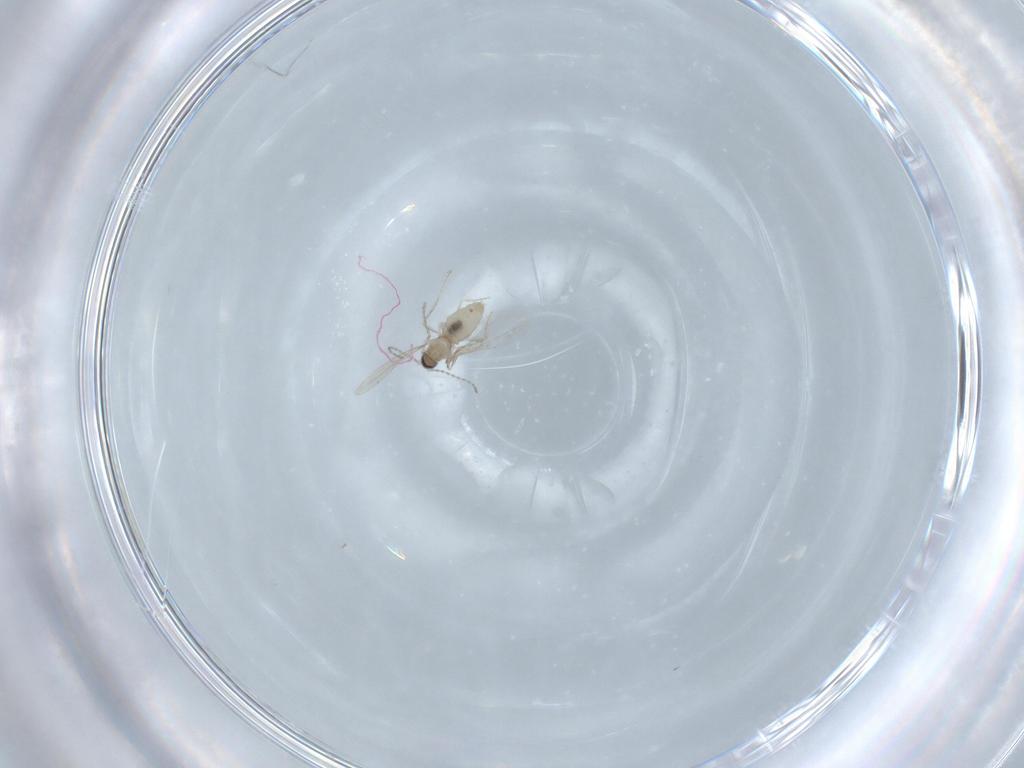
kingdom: Animalia
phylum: Arthropoda
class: Insecta
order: Diptera
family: Cecidomyiidae
